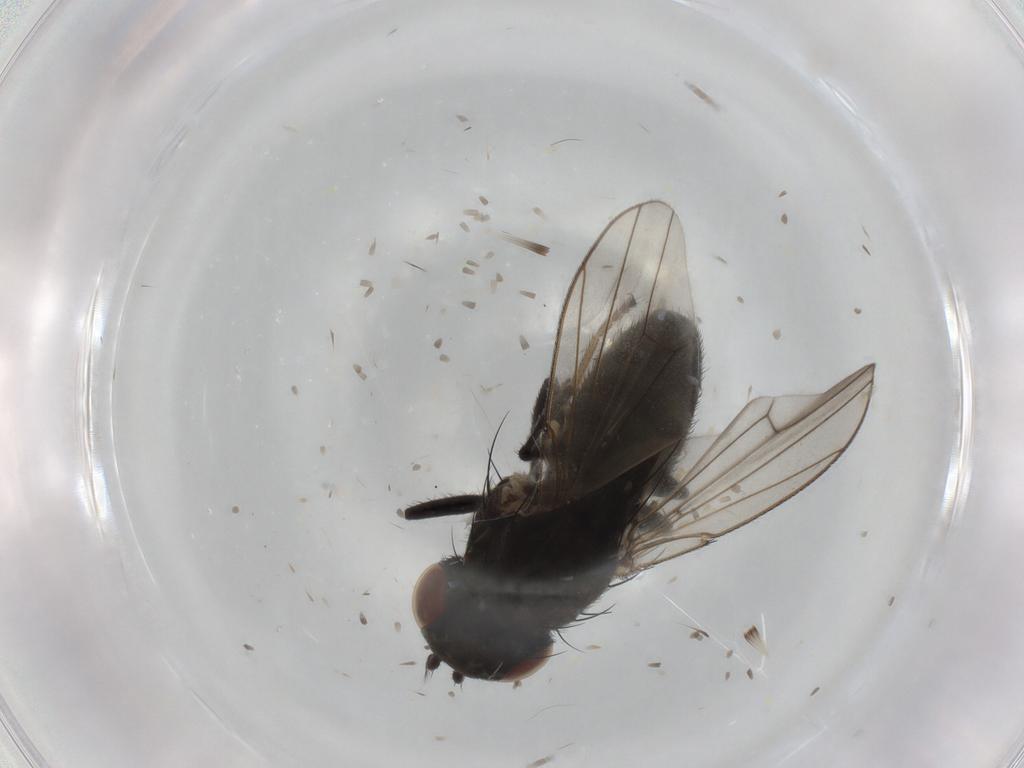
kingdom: Animalia
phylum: Arthropoda
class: Insecta
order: Diptera
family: Ephydridae
